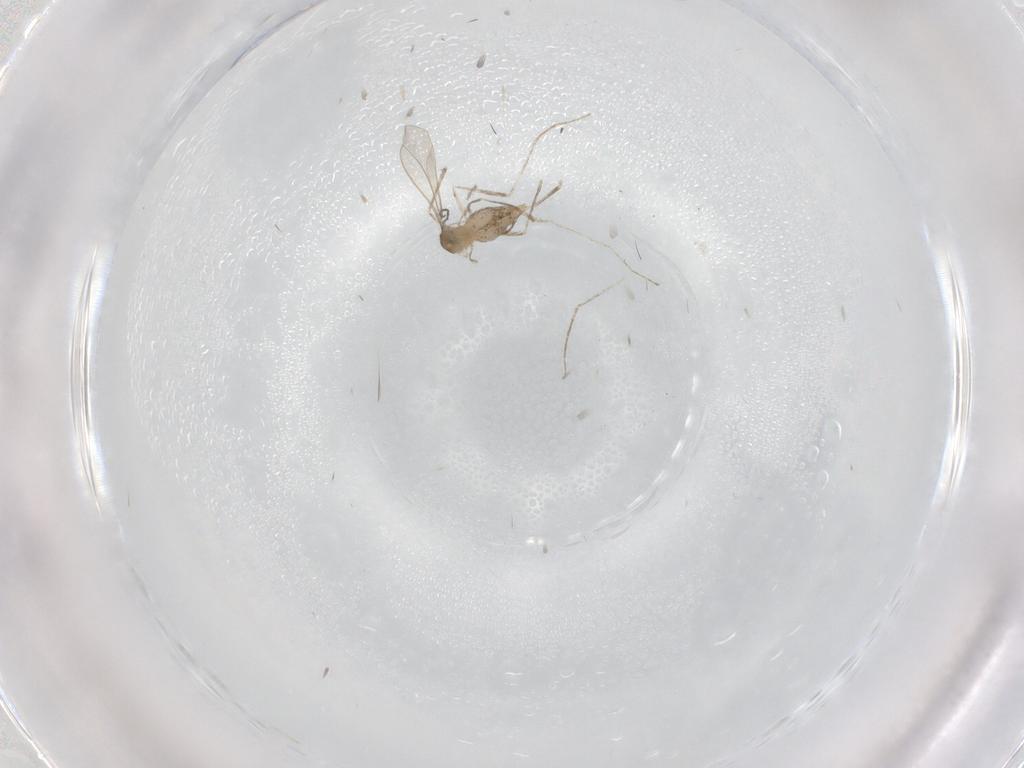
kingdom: Animalia
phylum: Arthropoda
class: Insecta
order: Diptera
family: Cecidomyiidae
